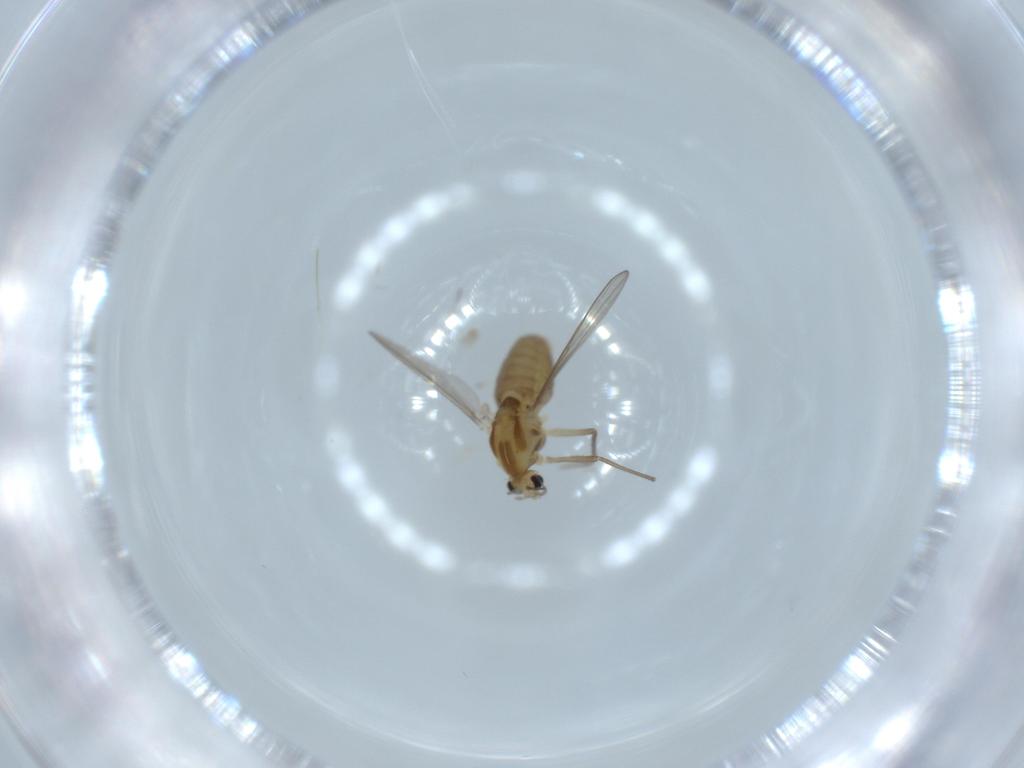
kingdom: Animalia
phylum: Arthropoda
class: Insecta
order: Diptera
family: Chironomidae
